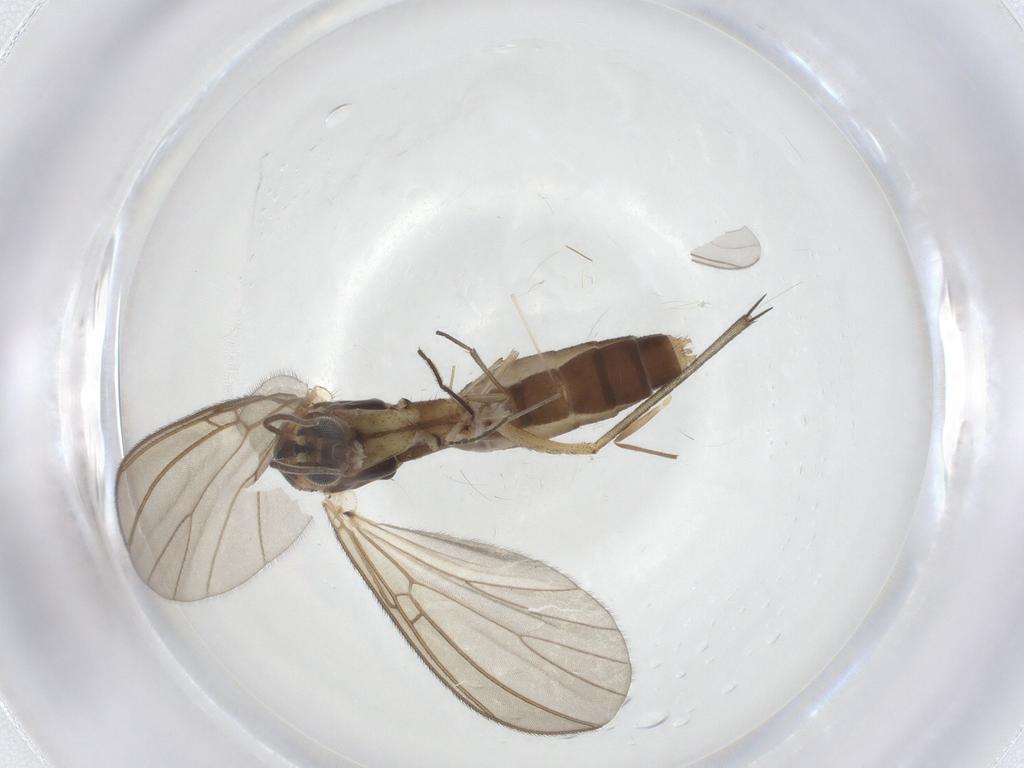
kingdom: Animalia
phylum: Arthropoda
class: Insecta
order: Diptera
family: Mycetophilidae
